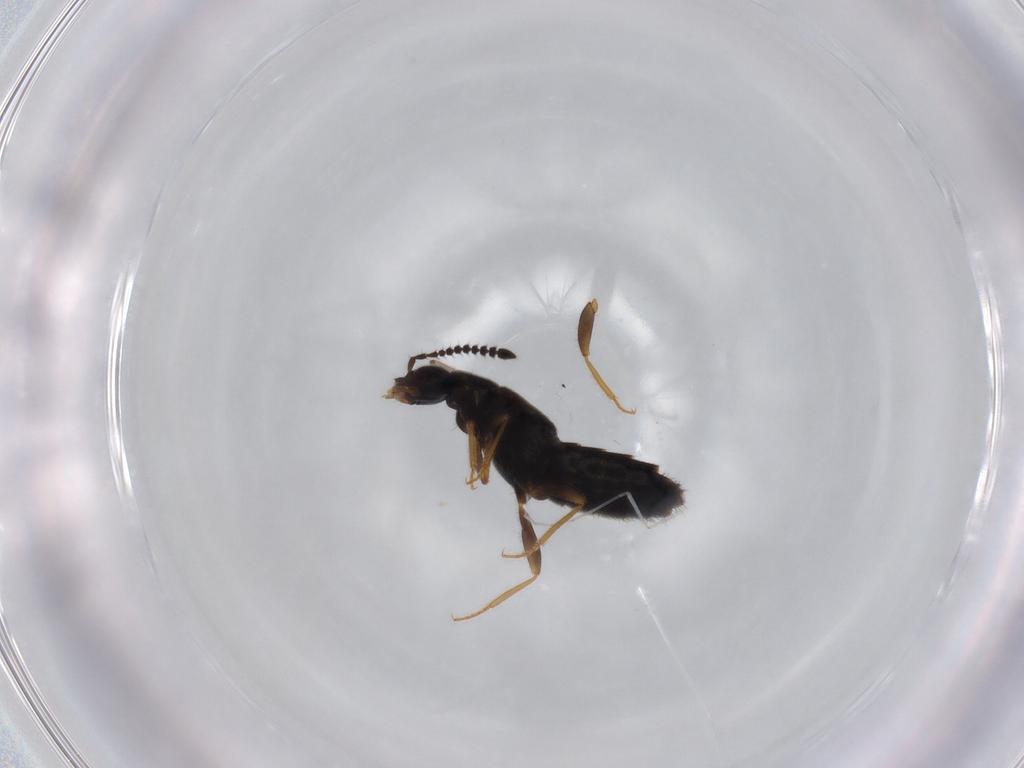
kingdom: Animalia
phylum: Arthropoda
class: Insecta
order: Coleoptera
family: Staphylinidae
